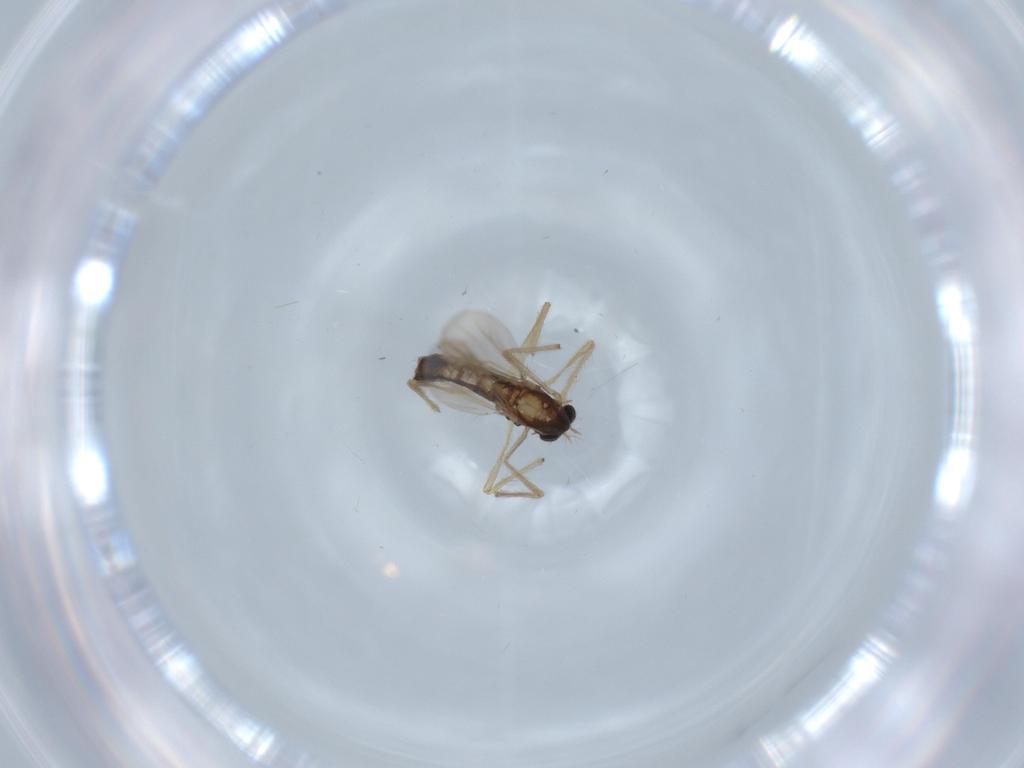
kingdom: Animalia
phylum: Arthropoda
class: Insecta
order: Diptera
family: Chironomidae
